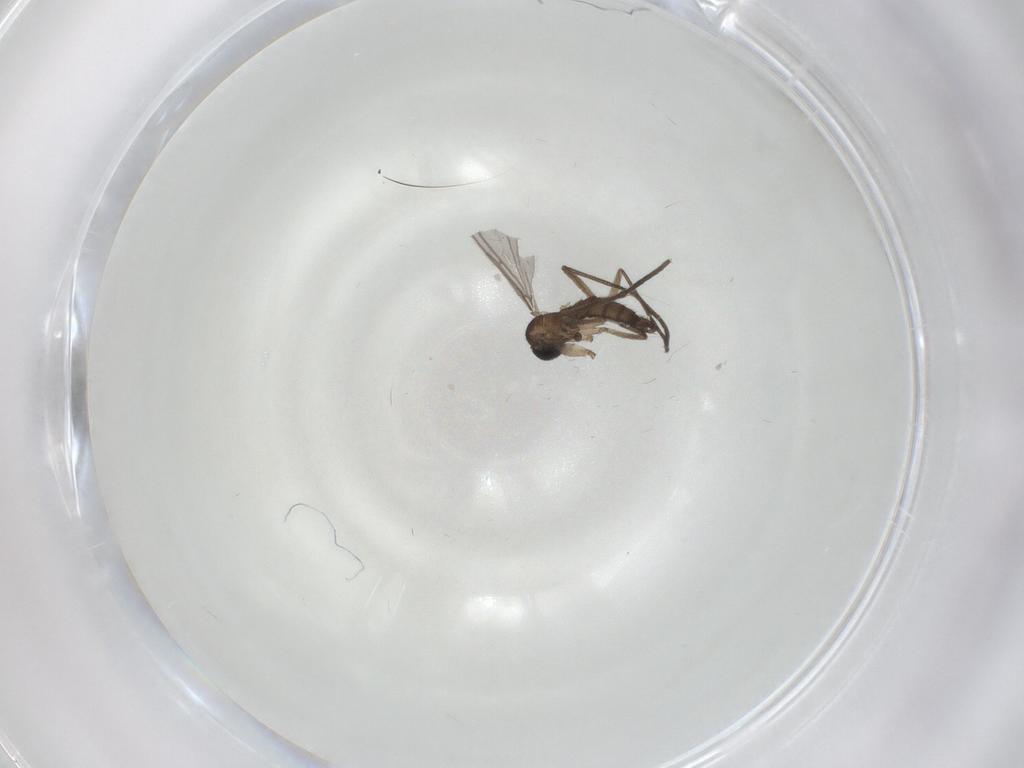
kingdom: Animalia
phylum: Arthropoda
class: Insecta
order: Diptera
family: Sciaridae
